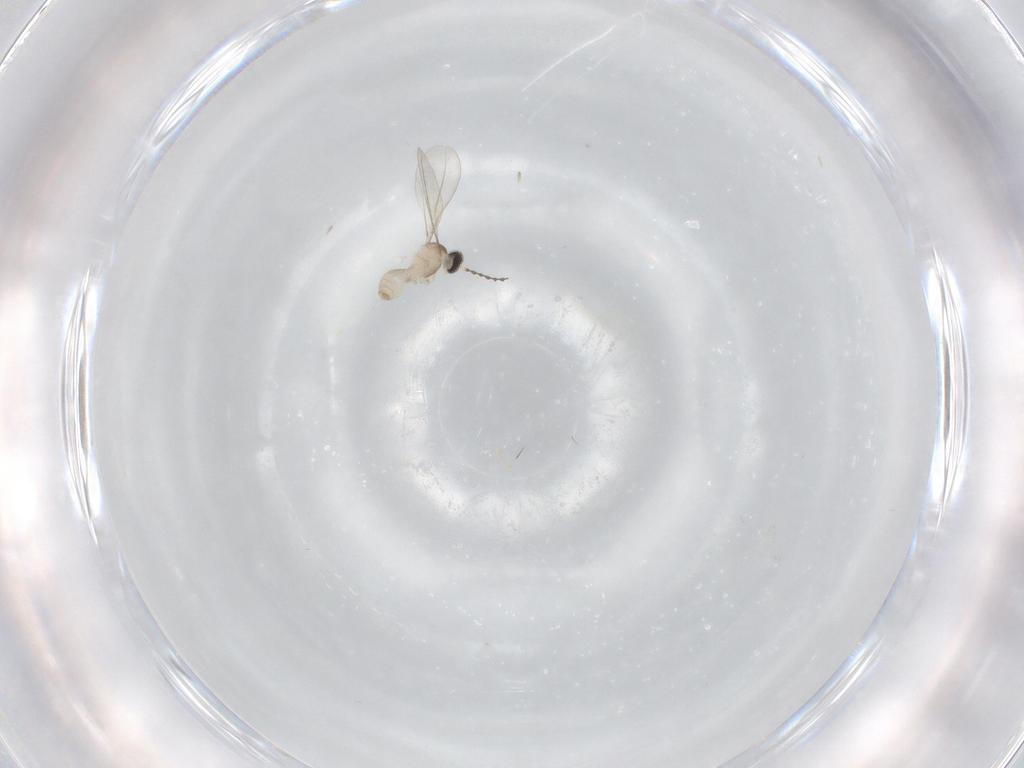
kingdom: Animalia
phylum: Arthropoda
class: Insecta
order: Diptera
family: Cecidomyiidae
